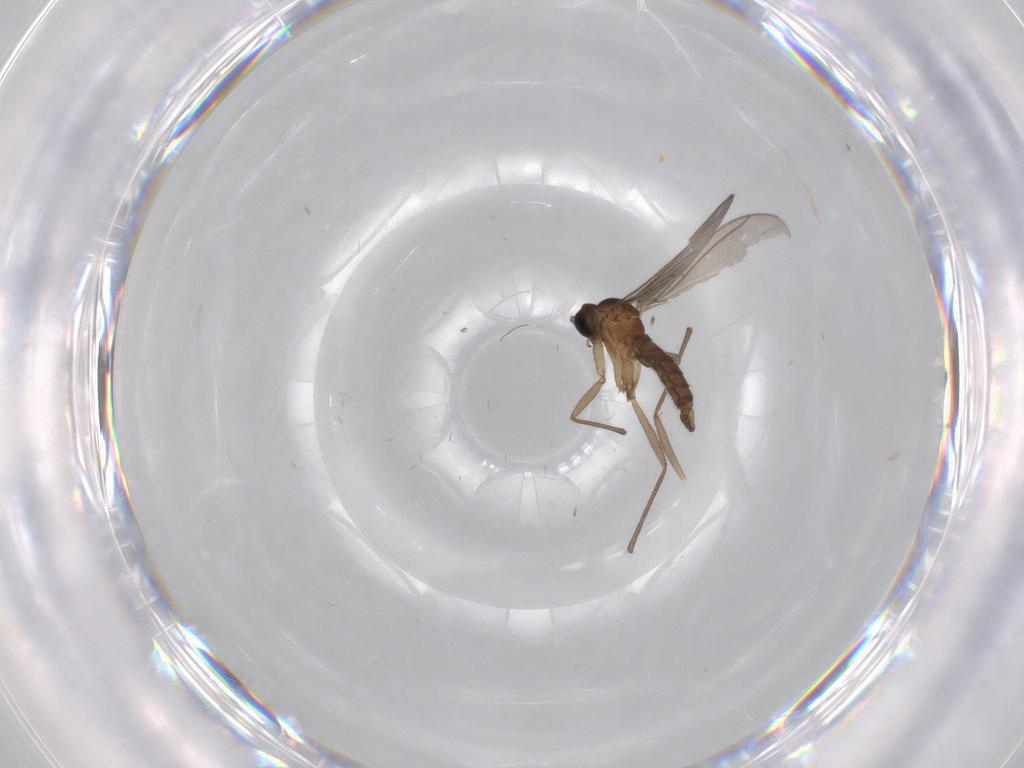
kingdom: Animalia
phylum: Arthropoda
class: Insecta
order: Diptera
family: Sciaridae
